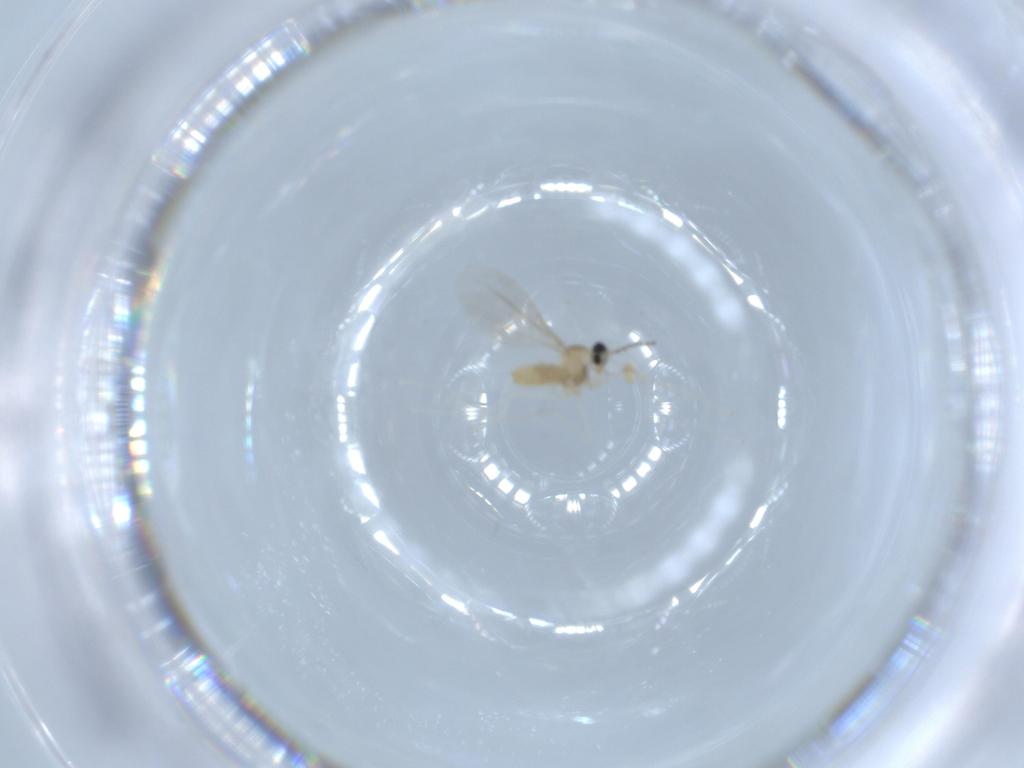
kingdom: Animalia
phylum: Arthropoda
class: Insecta
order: Diptera
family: Cecidomyiidae
